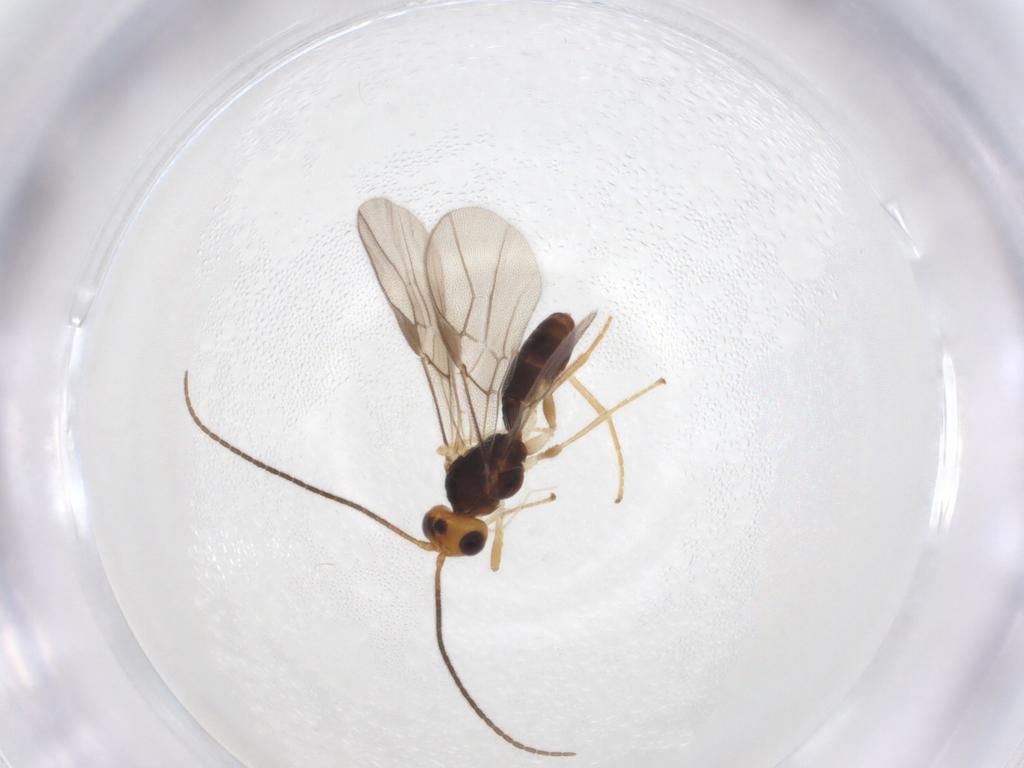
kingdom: Animalia
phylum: Arthropoda
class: Insecta
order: Hymenoptera
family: Braconidae
